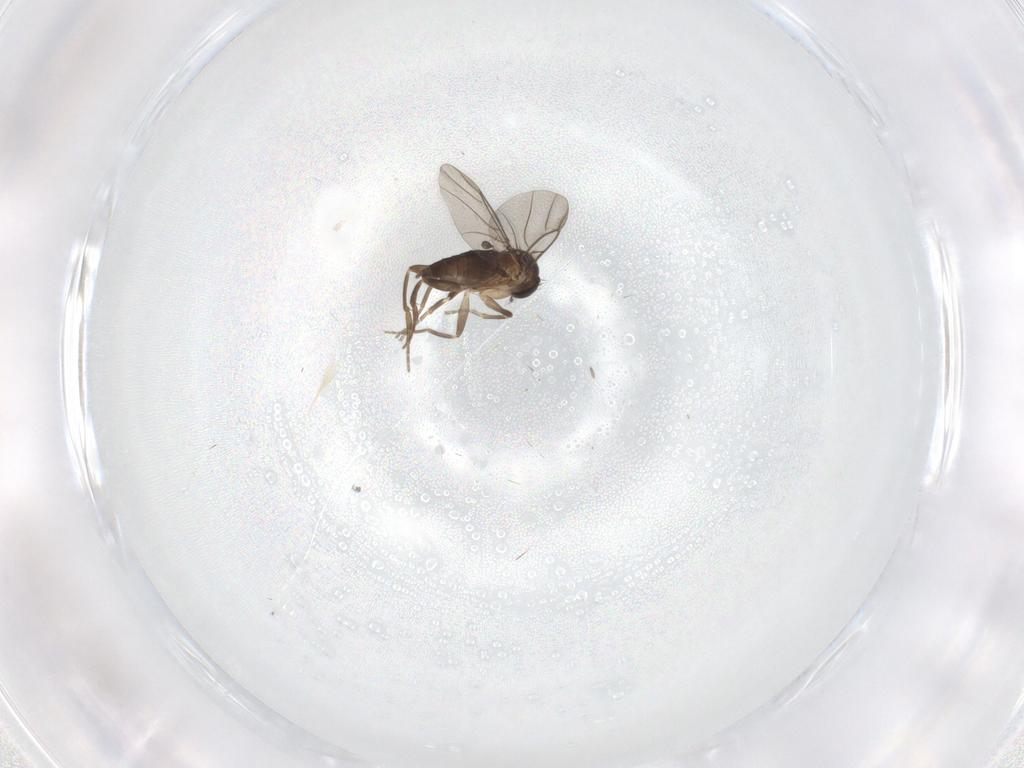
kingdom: Animalia
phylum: Arthropoda
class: Insecta
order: Diptera
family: Phoridae
